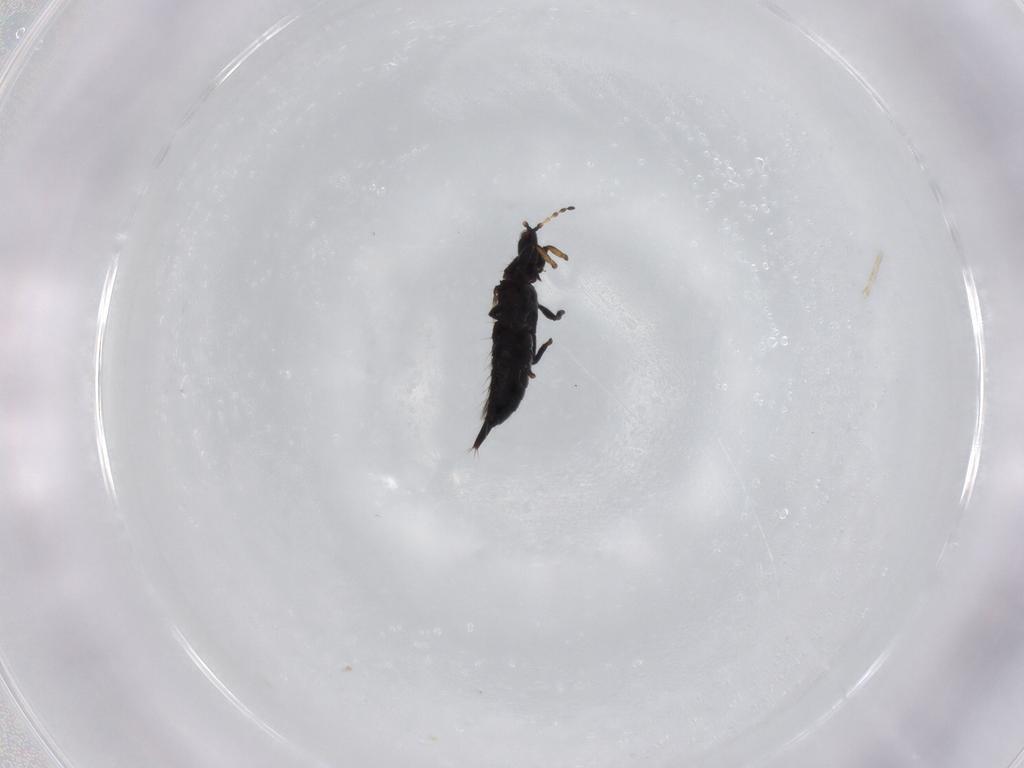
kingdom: Animalia
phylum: Arthropoda
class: Insecta
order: Thysanoptera
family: Phlaeothripidae
